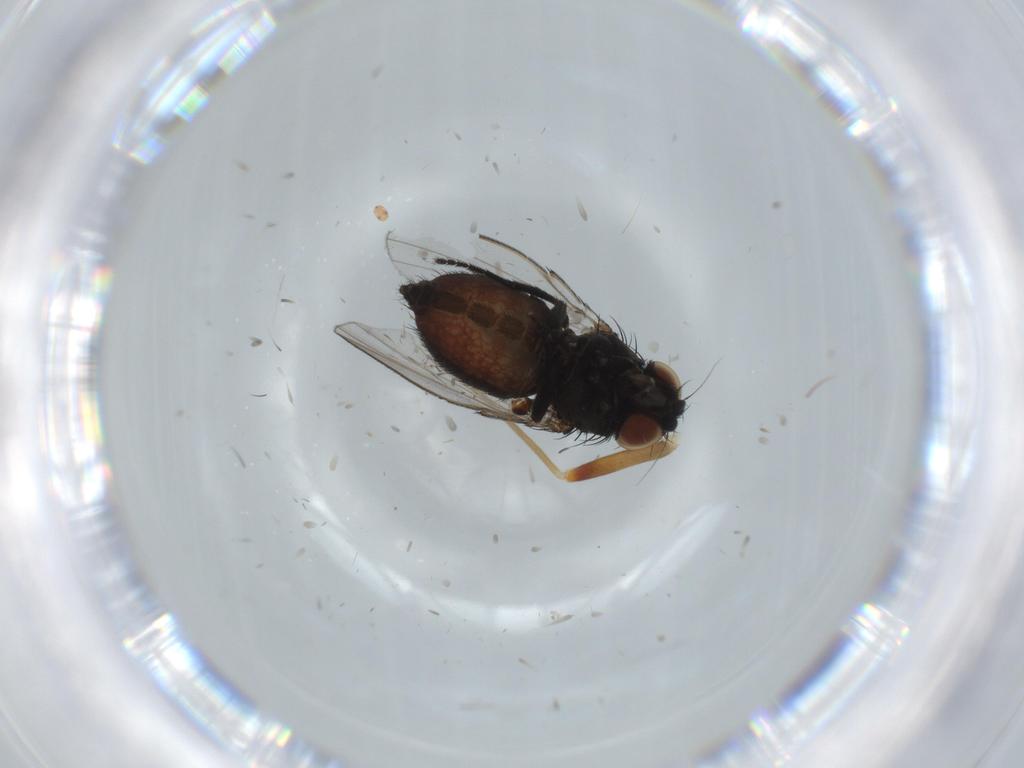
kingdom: Animalia
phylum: Arthropoda
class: Insecta
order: Diptera
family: Milichiidae
